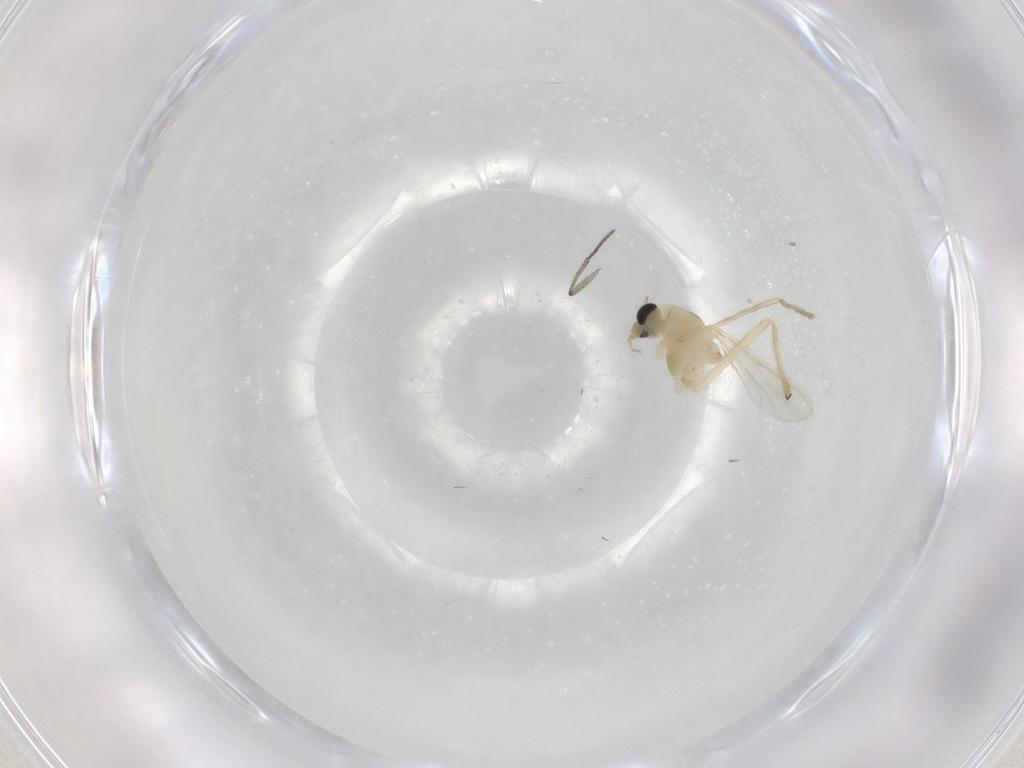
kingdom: Animalia
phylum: Arthropoda
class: Insecta
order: Diptera
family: Chironomidae
